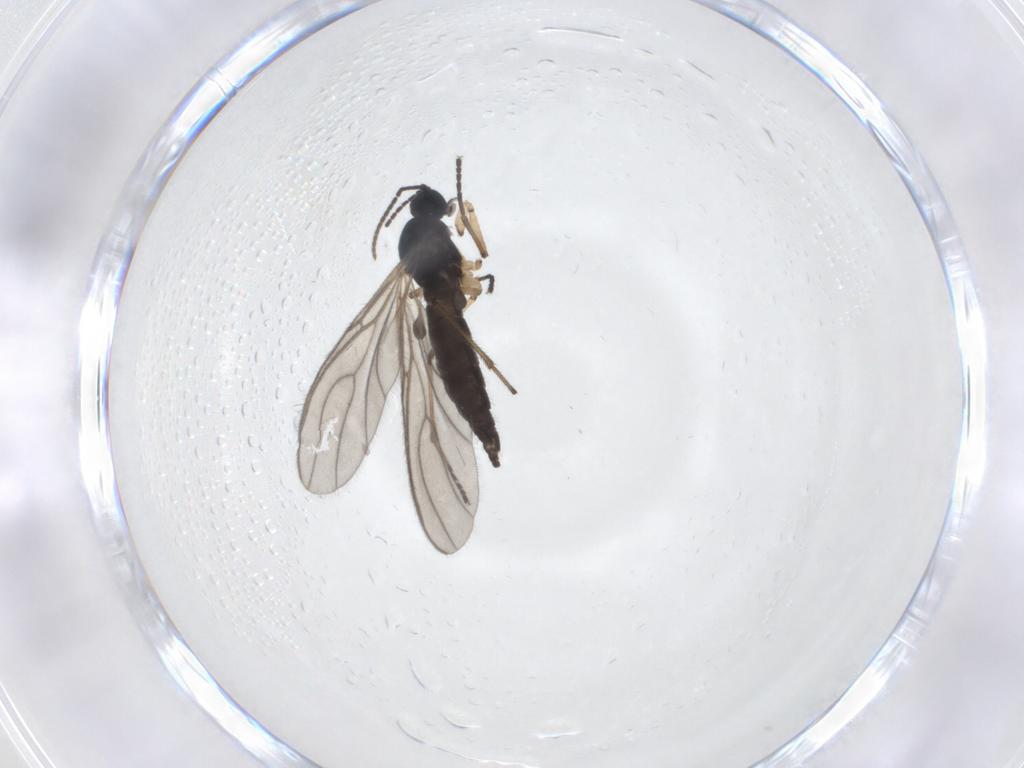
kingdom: Animalia
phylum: Arthropoda
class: Insecta
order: Diptera
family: Sciaridae
